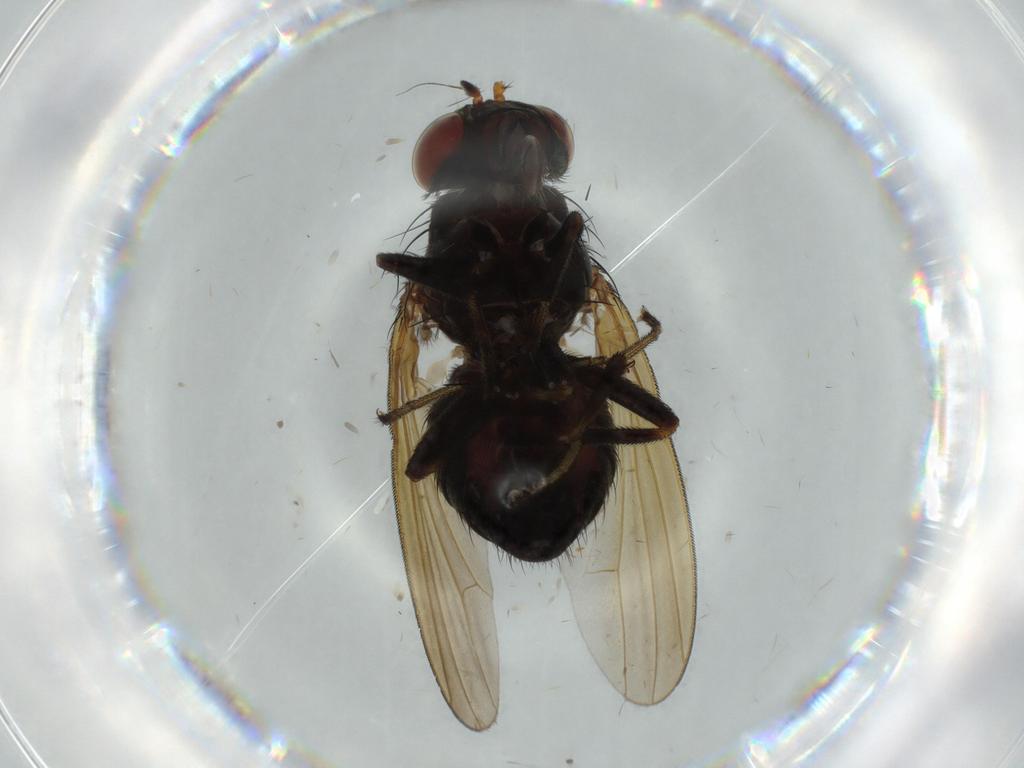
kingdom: Animalia
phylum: Arthropoda
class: Insecta
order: Diptera
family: Lauxaniidae
